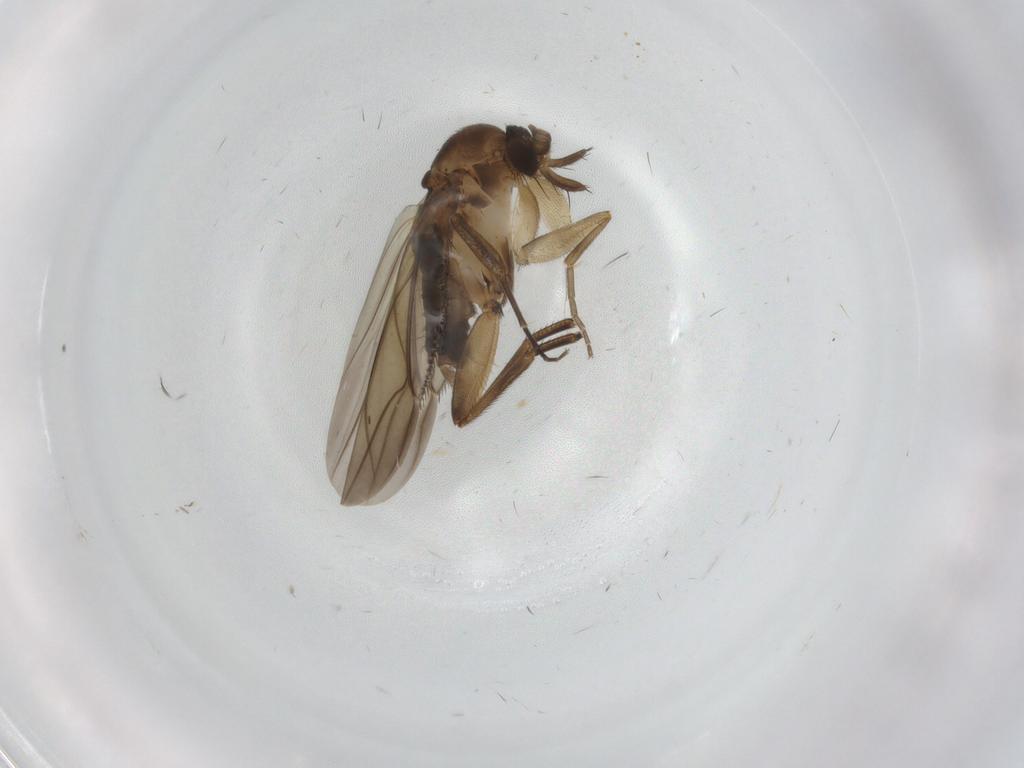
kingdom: Animalia
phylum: Arthropoda
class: Insecta
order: Diptera
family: Phoridae
